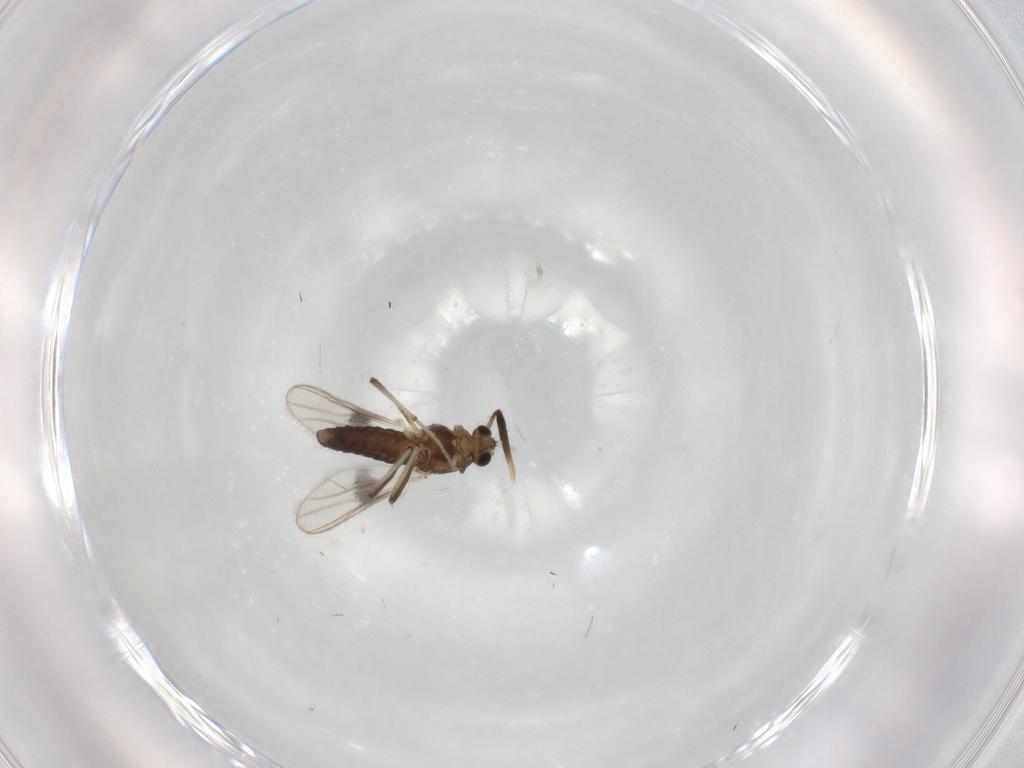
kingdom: Animalia
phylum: Arthropoda
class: Insecta
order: Diptera
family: Chironomidae
